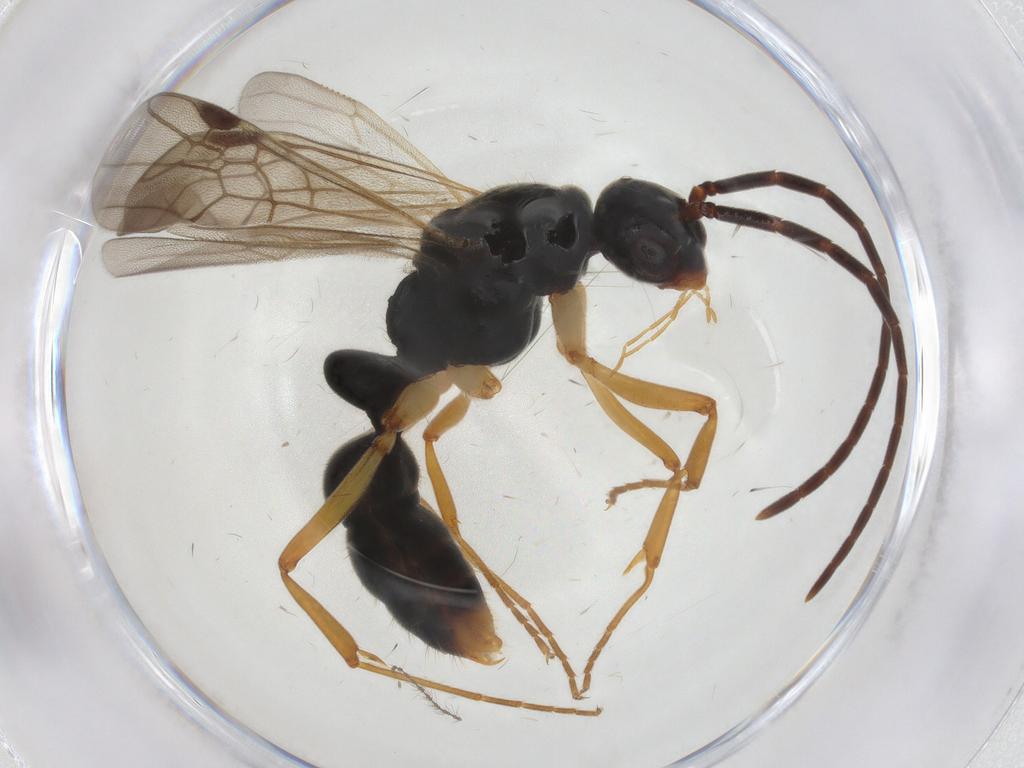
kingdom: Animalia
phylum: Arthropoda
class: Insecta
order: Hymenoptera
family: Formicidae
